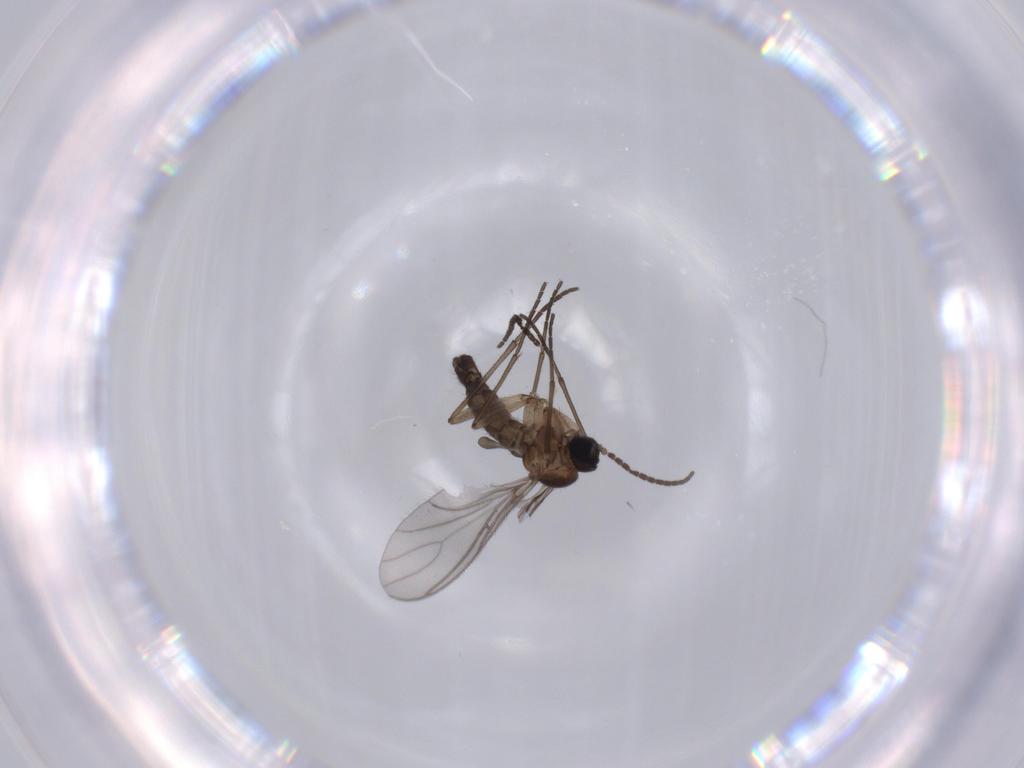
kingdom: Animalia
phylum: Arthropoda
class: Insecta
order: Diptera
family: Sciaridae
